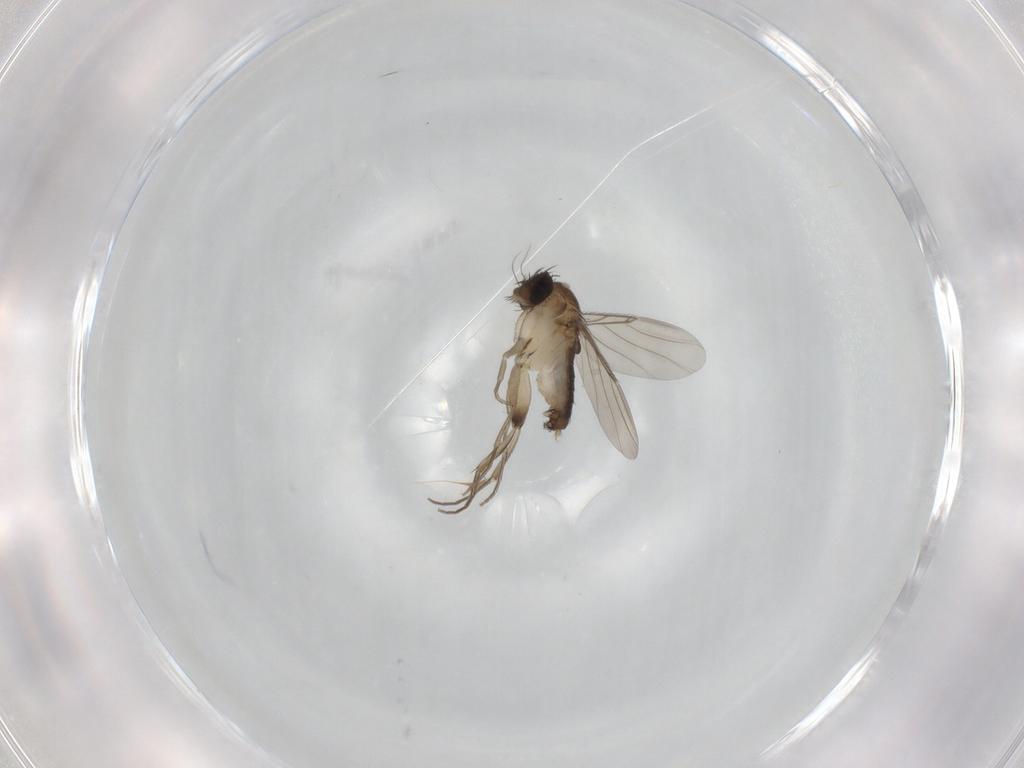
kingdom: Animalia
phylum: Arthropoda
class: Insecta
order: Diptera
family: Phoridae
